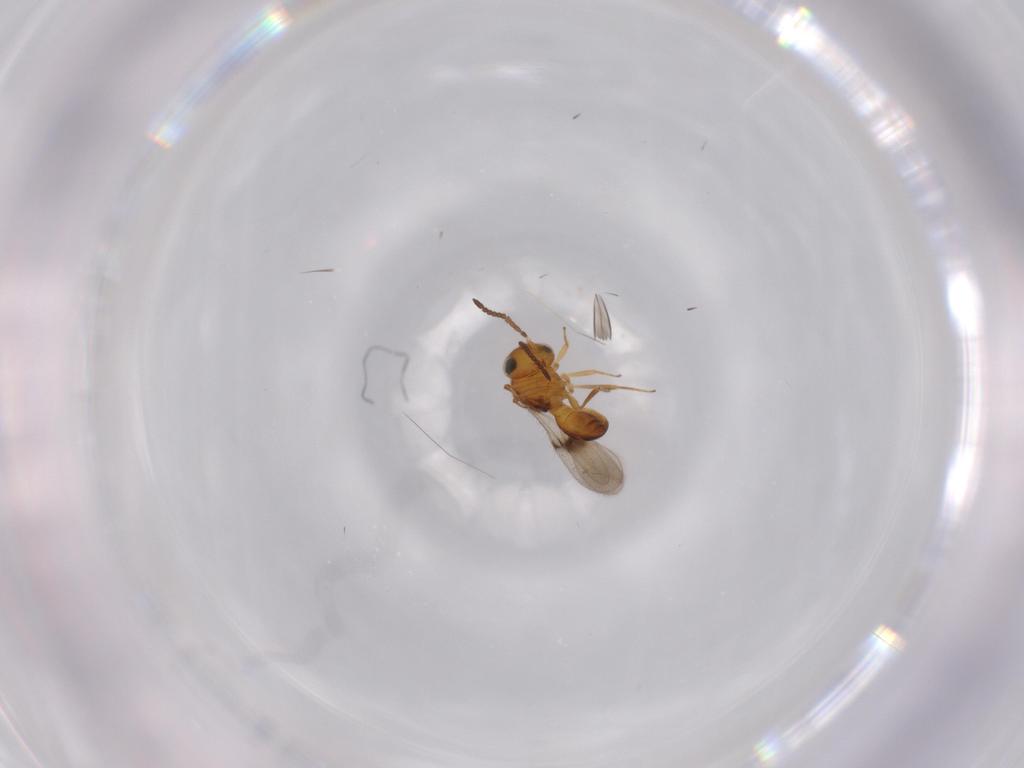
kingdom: Animalia
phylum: Arthropoda
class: Insecta
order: Hymenoptera
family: Scelionidae
